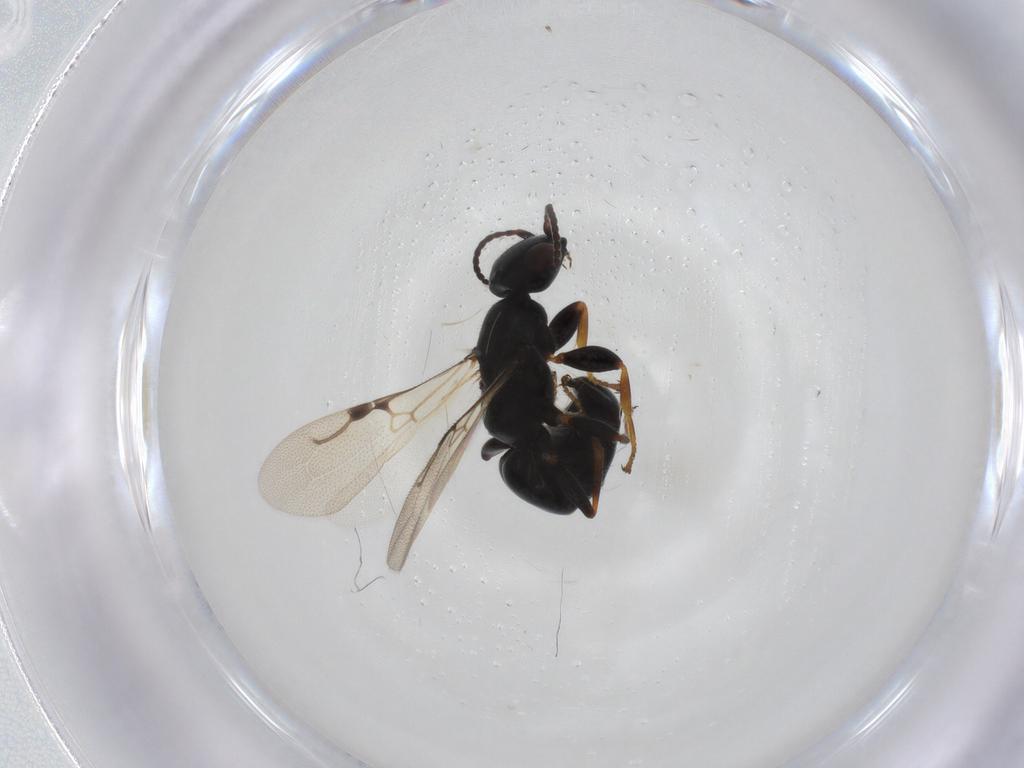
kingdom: Animalia
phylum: Arthropoda
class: Insecta
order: Hymenoptera
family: Bethylidae
